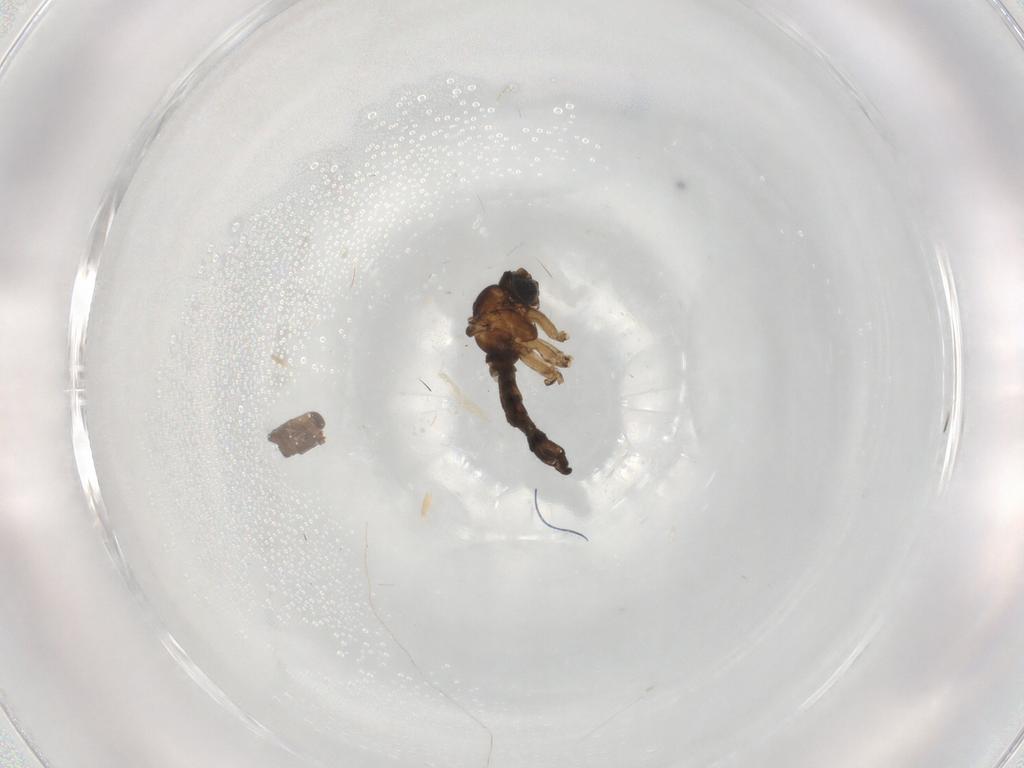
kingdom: Animalia
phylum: Arthropoda
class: Insecta
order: Diptera
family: Sciaridae
